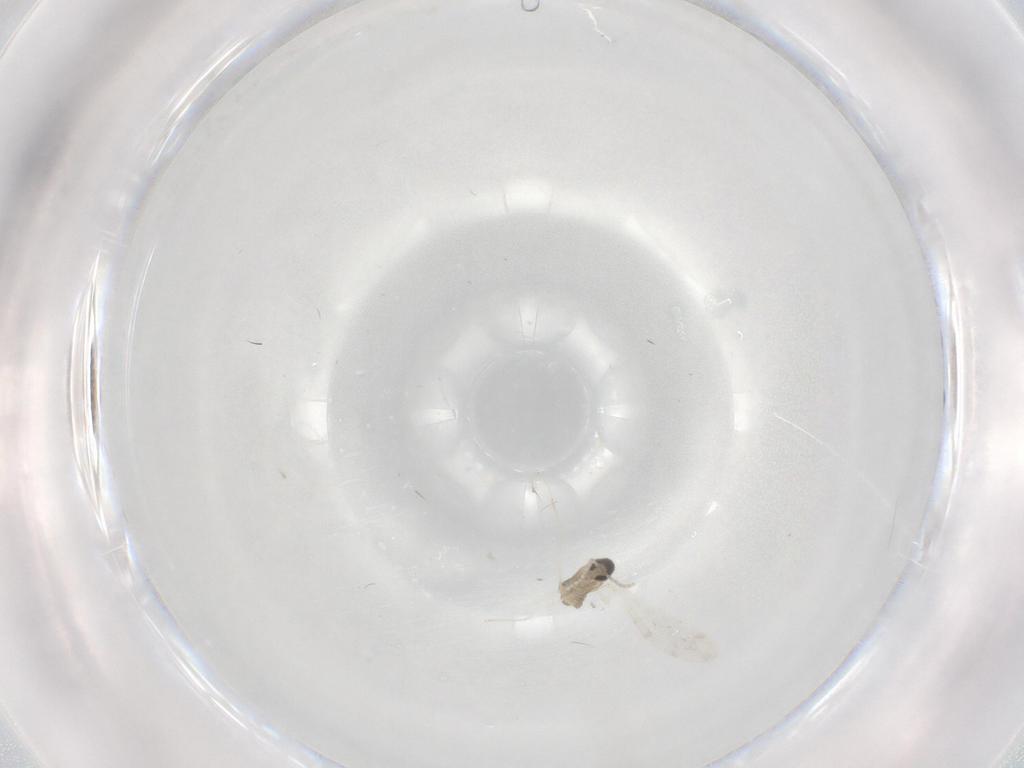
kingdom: Animalia
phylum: Arthropoda
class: Insecta
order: Diptera
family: Cecidomyiidae
